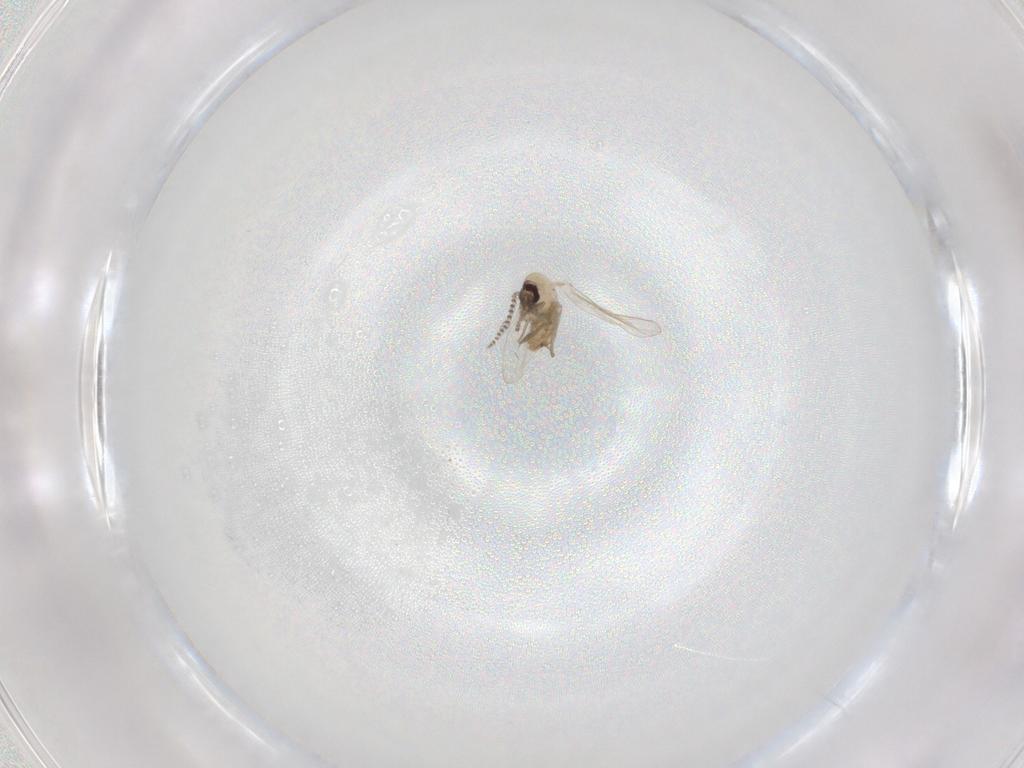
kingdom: Animalia
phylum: Arthropoda
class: Insecta
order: Diptera
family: Psychodidae
